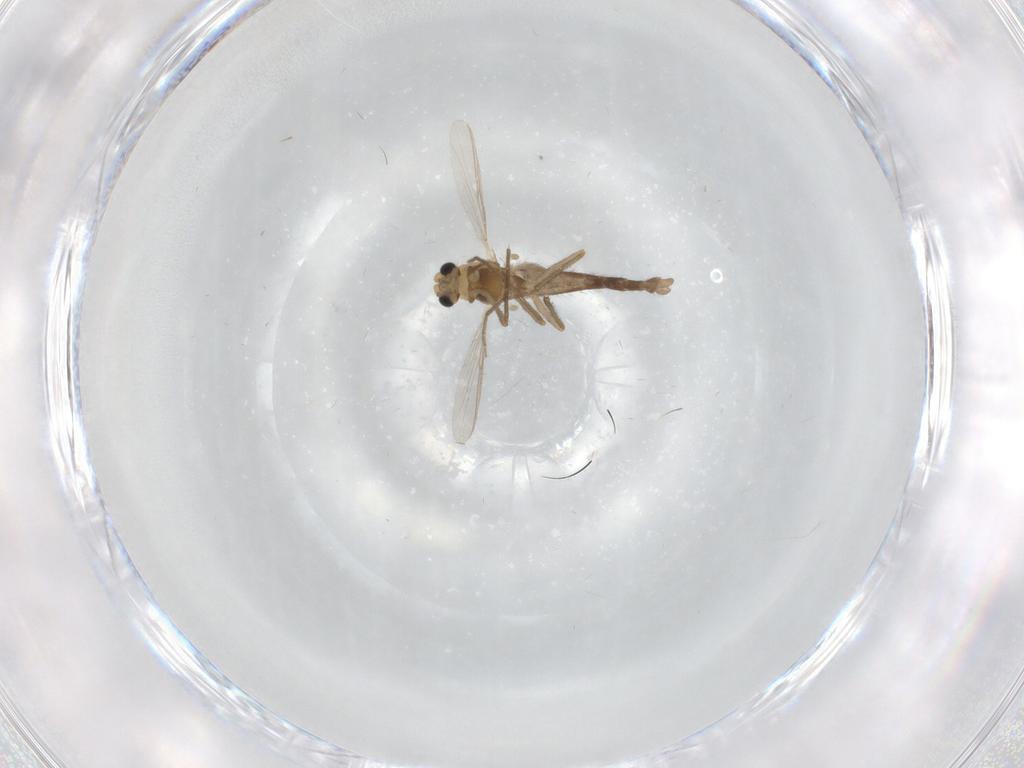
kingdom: Animalia
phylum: Arthropoda
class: Insecta
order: Diptera
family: Chironomidae
